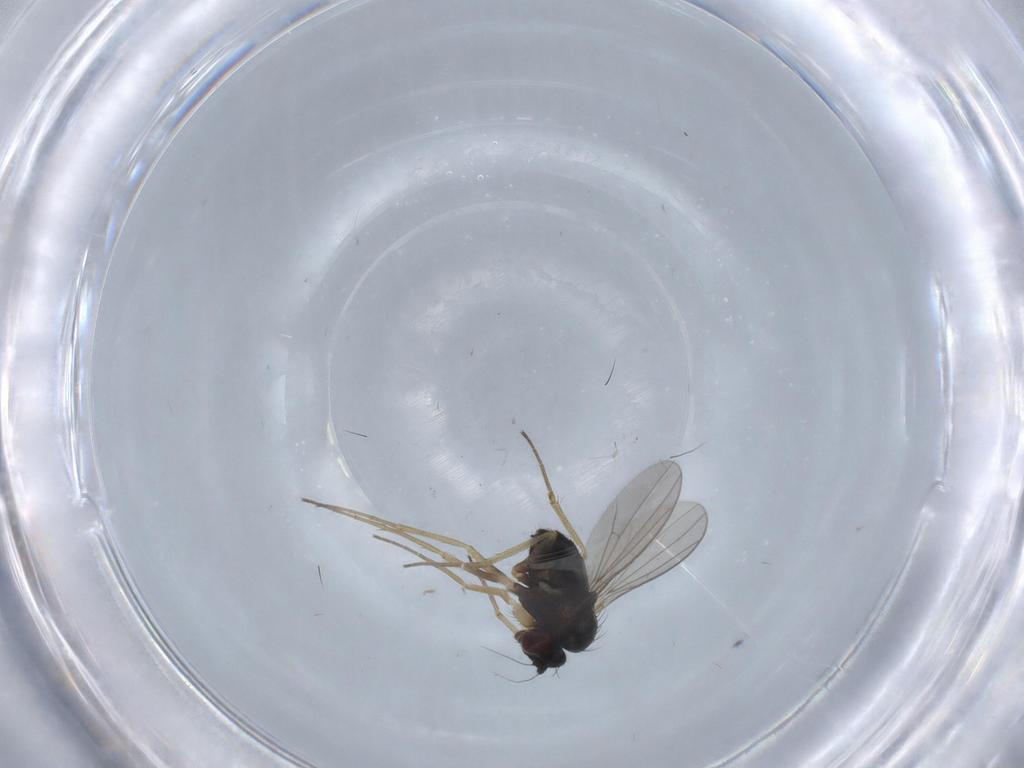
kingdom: Animalia
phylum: Arthropoda
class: Insecta
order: Diptera
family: Dolichopodidae
